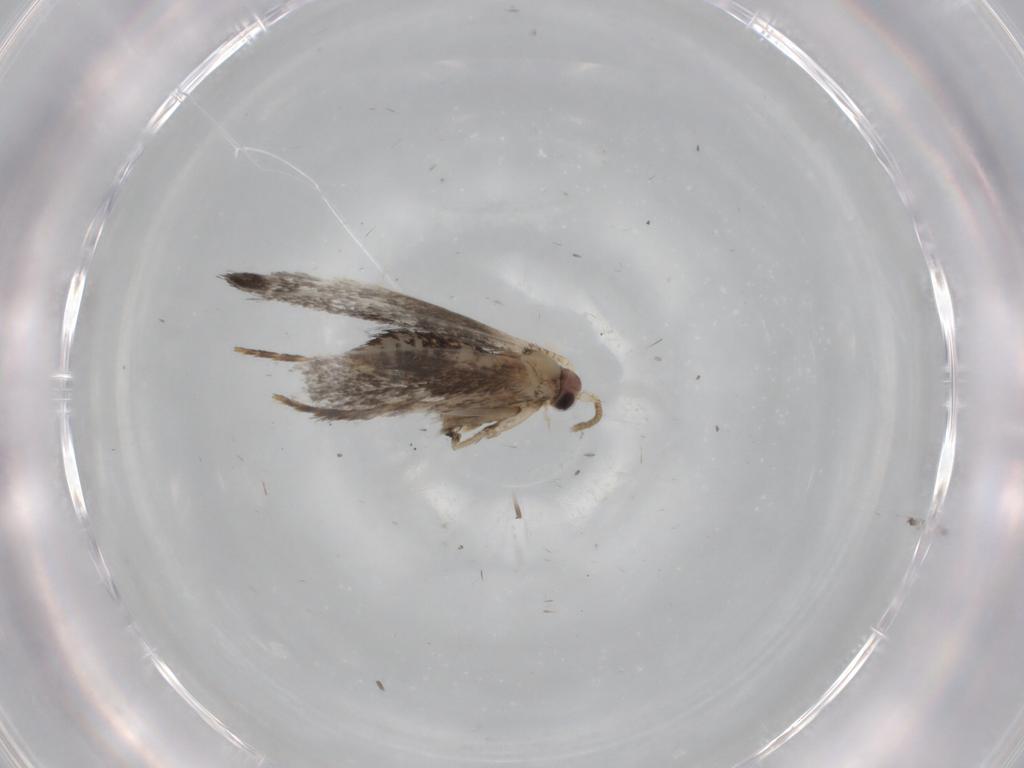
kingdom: Animalia
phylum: Arthropoda
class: Insecta
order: Lepidoptera
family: Tineidae
